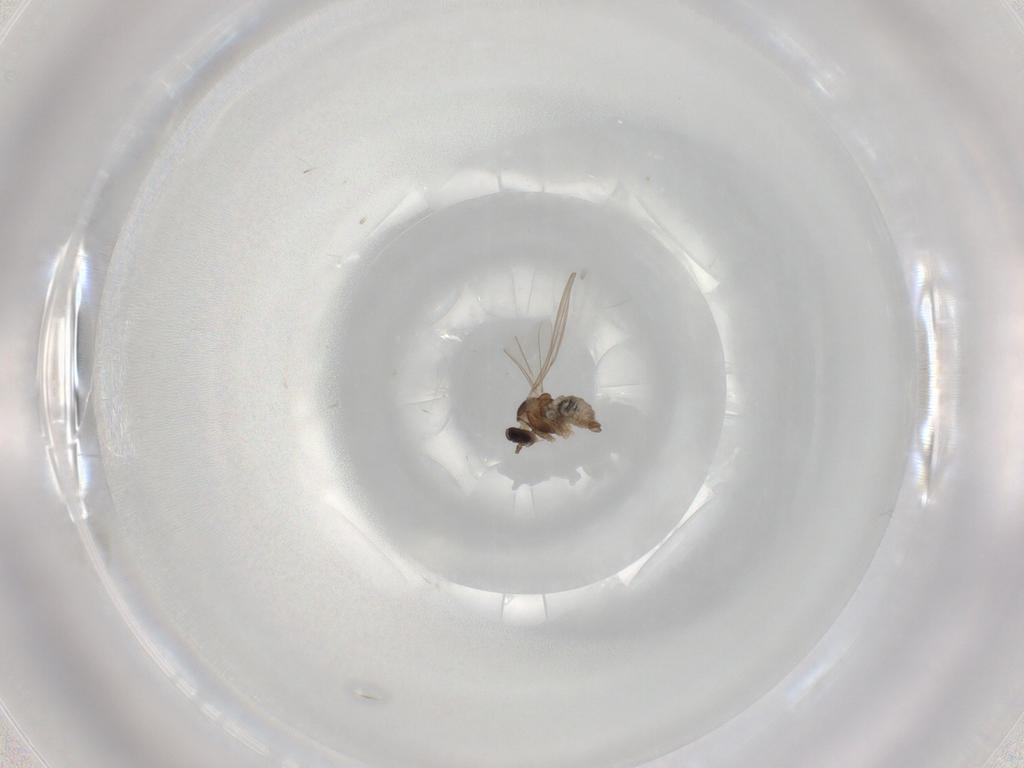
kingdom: Animalia
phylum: Arthropoda
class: Insecta
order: Diptera
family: Cecidomyiidae
